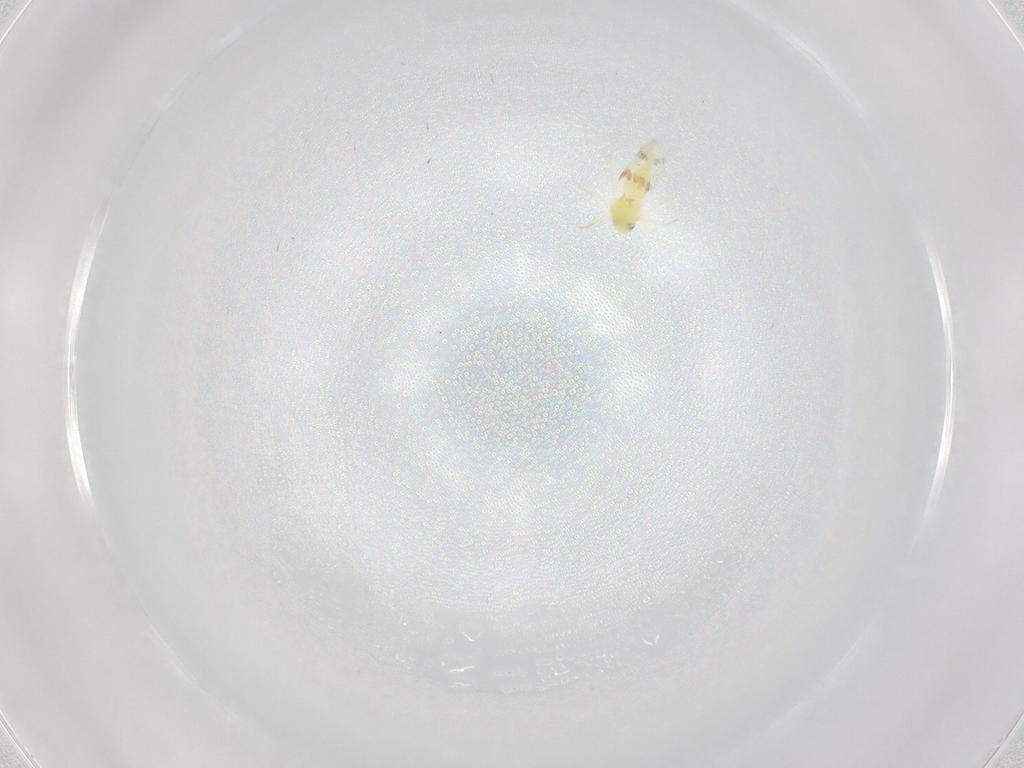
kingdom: Animalia
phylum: Arthropoda
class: Insecta
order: Hemiptera
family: Aleyrodidae
